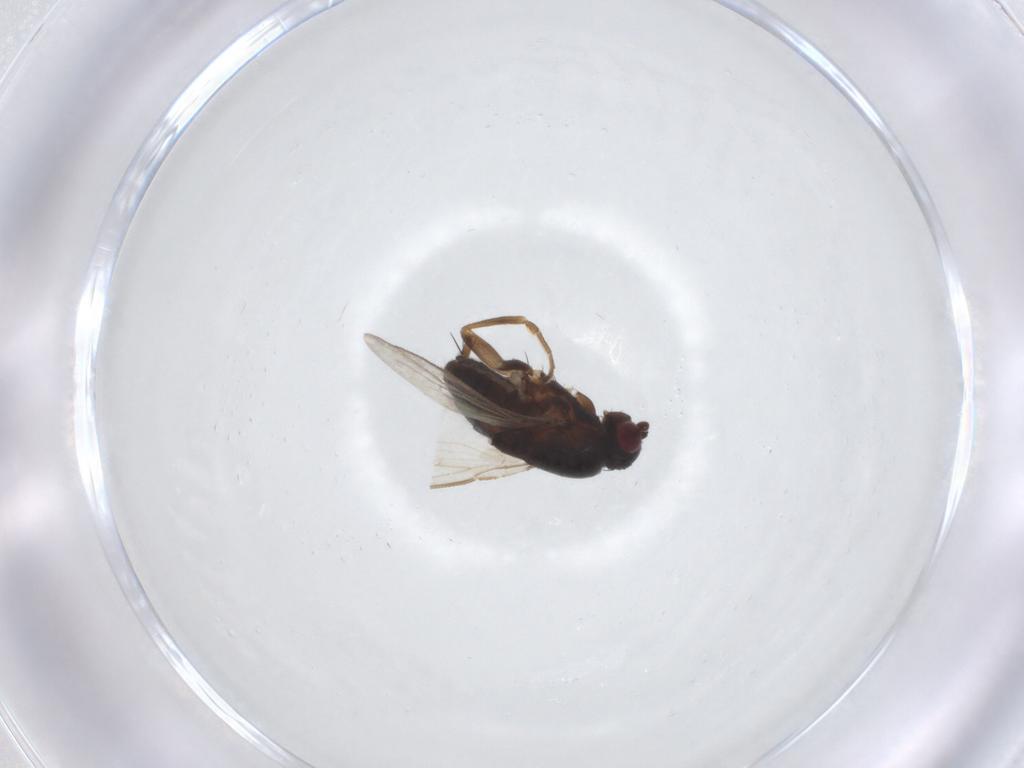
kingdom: Animalia
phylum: Arthropoda
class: Insecta
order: Diptera
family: Sphaeroceridae
